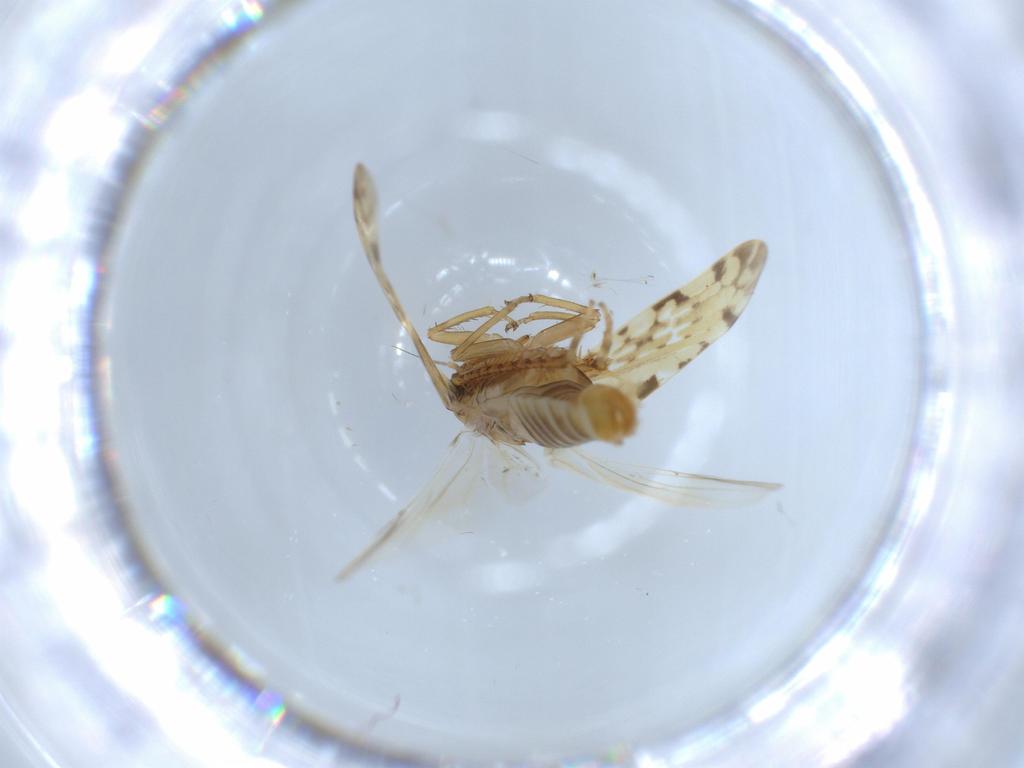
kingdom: Animalia
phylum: Arthropoda
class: Insecta
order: Hemiptera
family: Cicadellidae
